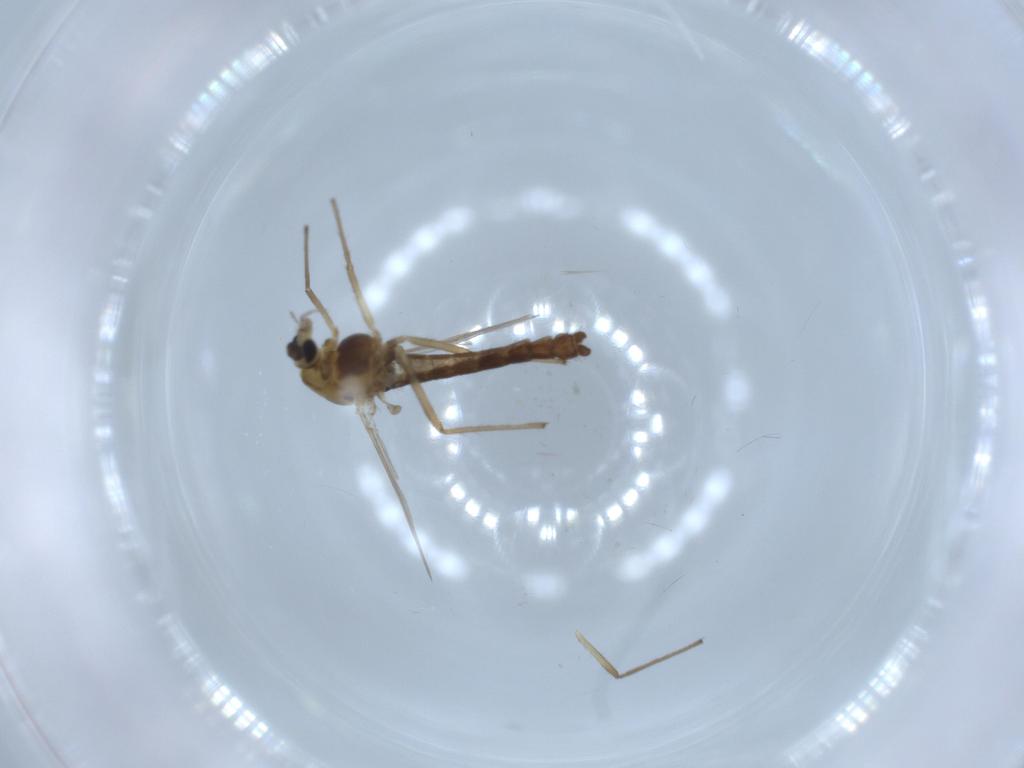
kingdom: Animalia
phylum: Arthropoda
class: Insecta
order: Diptera
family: Chironomidae
